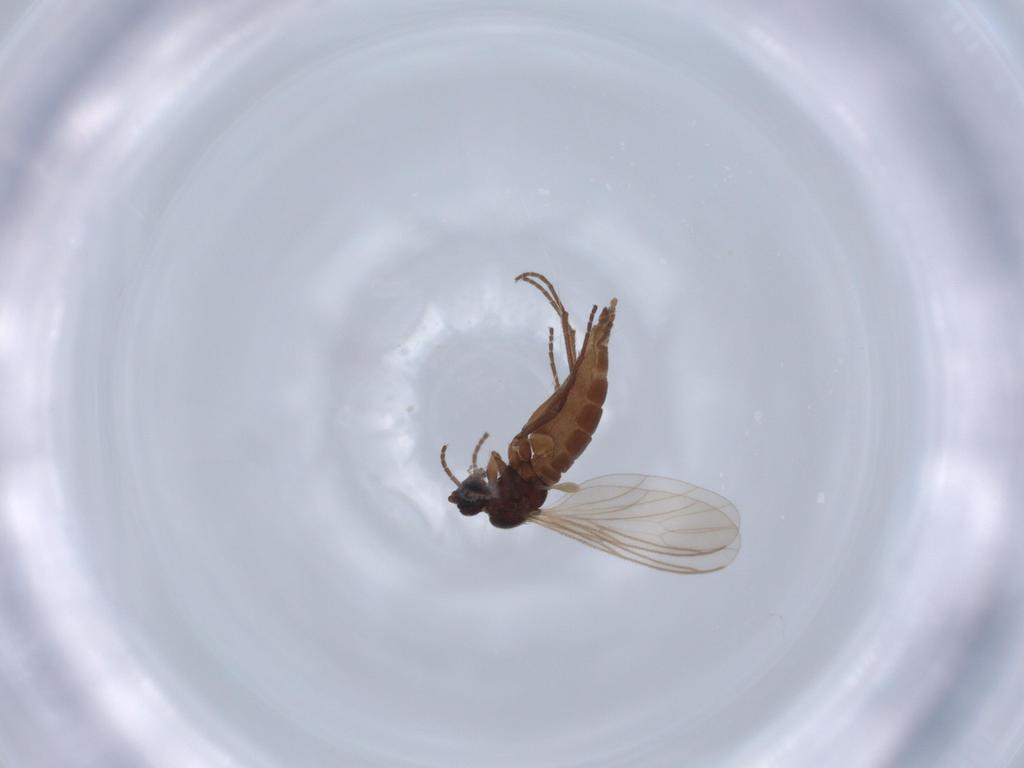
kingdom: Animalia
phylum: Arthropoda
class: Insecta
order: Diptera
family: Sciaridae
